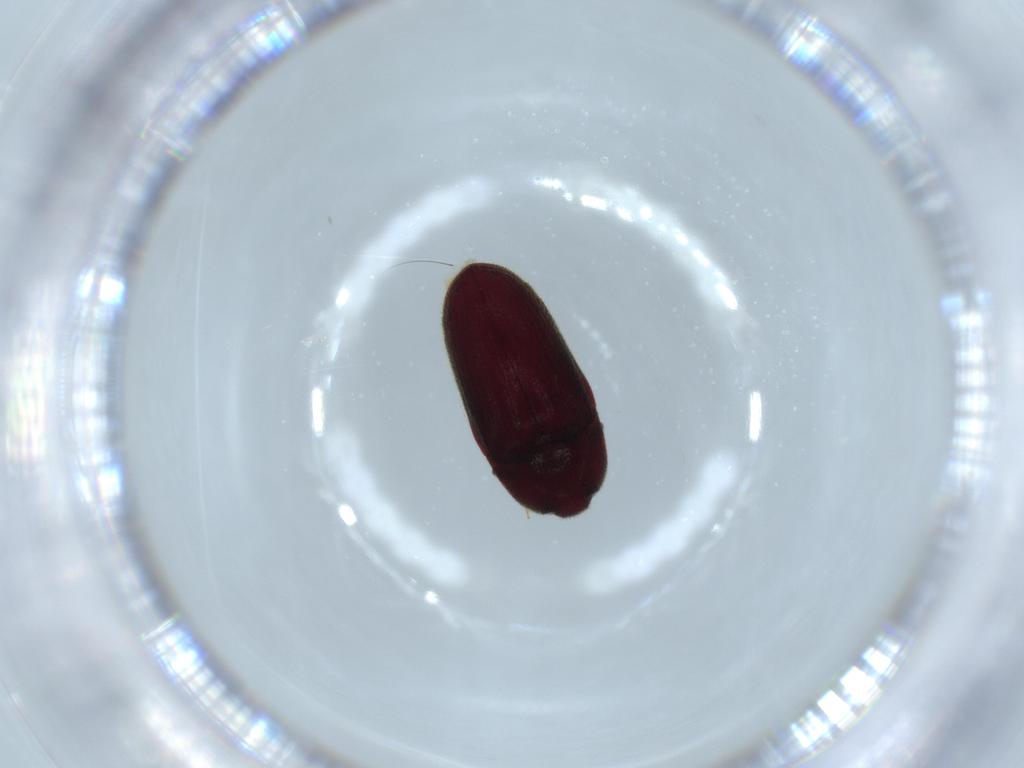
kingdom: Animalia
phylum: Arthropoda
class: Insecta
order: Coleoptera
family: Throscidae
